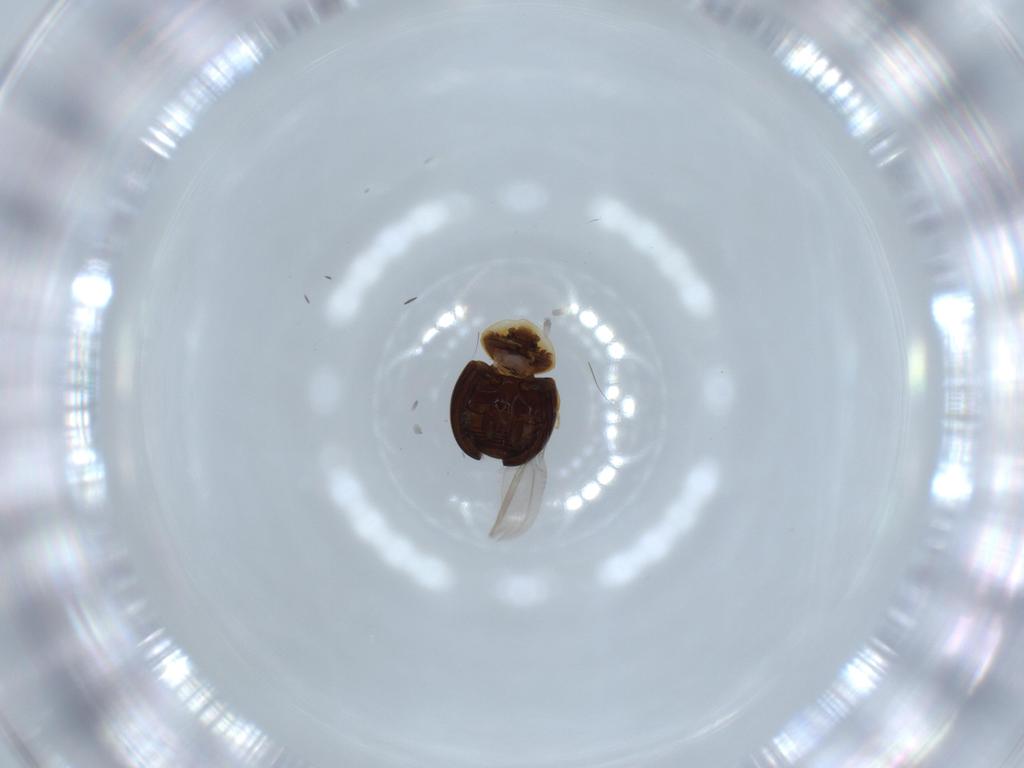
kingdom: Animalia
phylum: Arthropoda
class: Insecta
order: Coleoptera
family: Corylophidae
